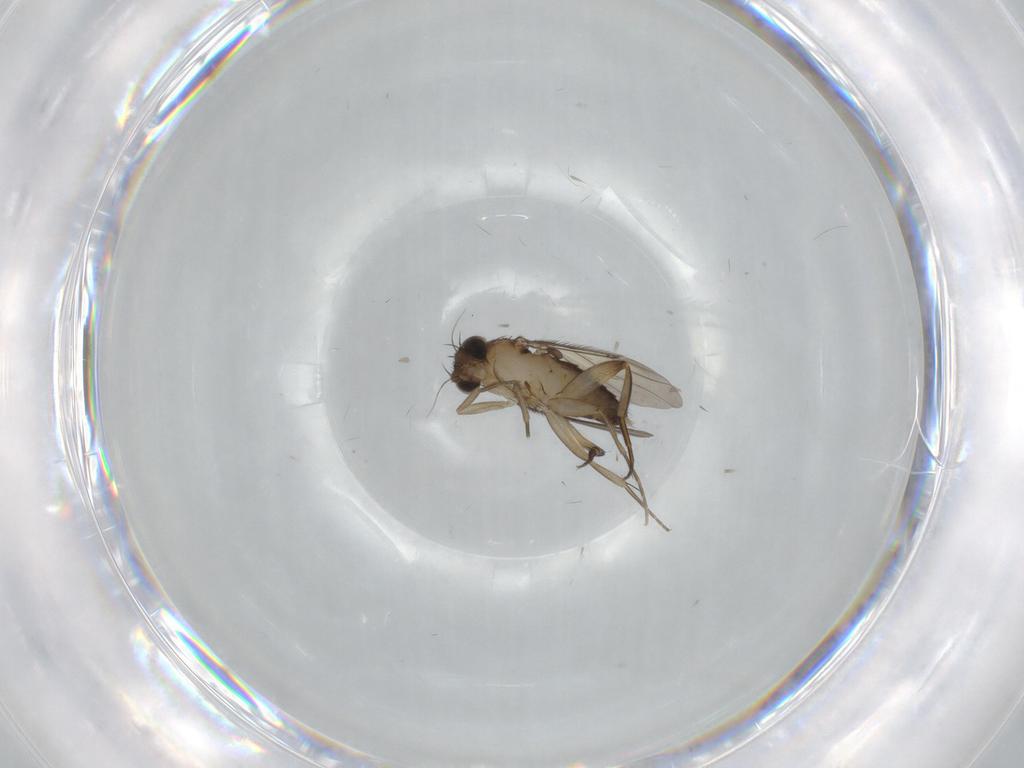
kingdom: Animalia
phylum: Arthropoda
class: Insecta
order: Diptera
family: Phoridae
